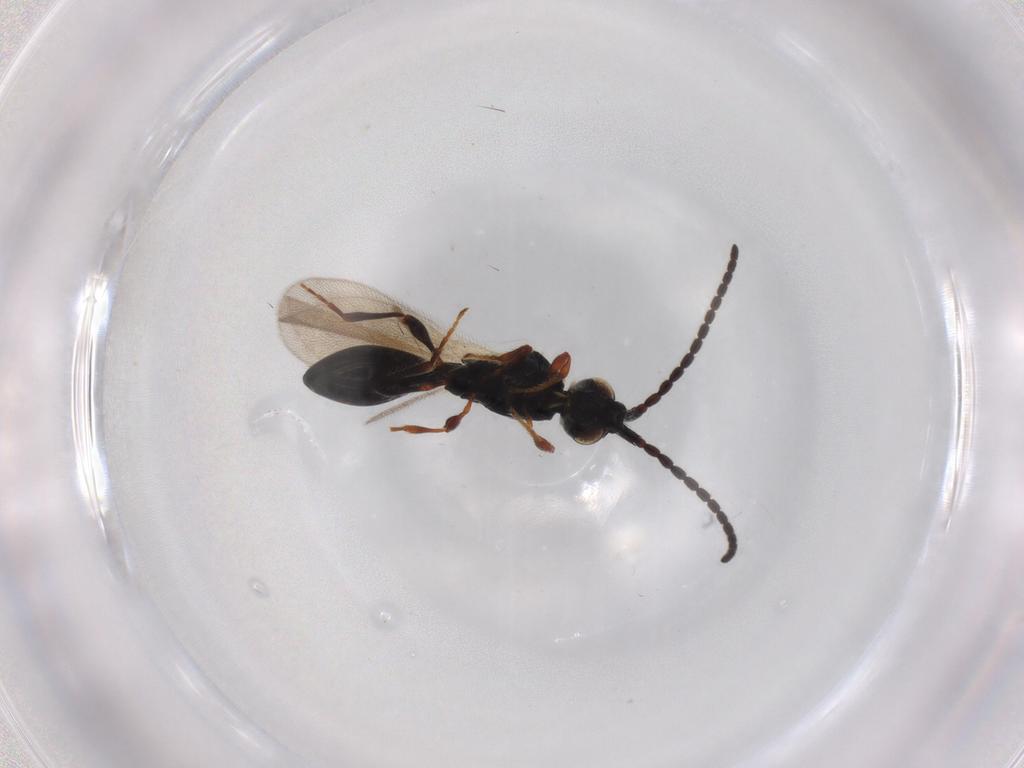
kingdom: Animalia
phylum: Arthropoda
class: Insecta
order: Hymenoptera
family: Diapriidae
